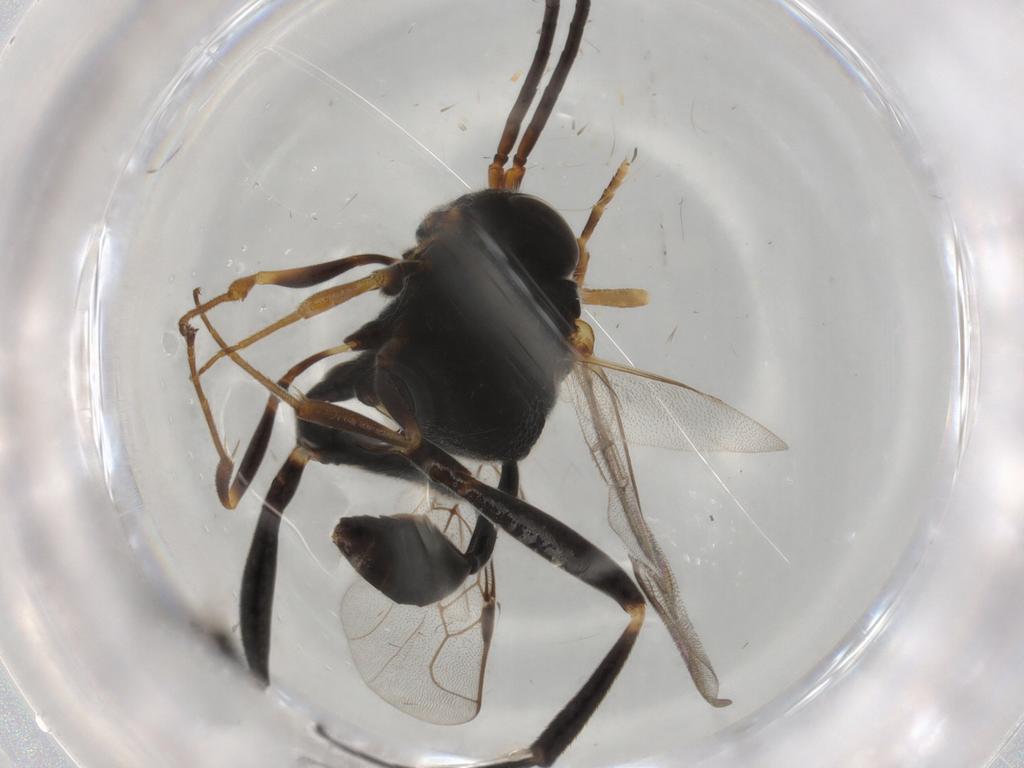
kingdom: Animalia
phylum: Arthropoda
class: Insecta
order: Hymenoptera
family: Evaniidae
